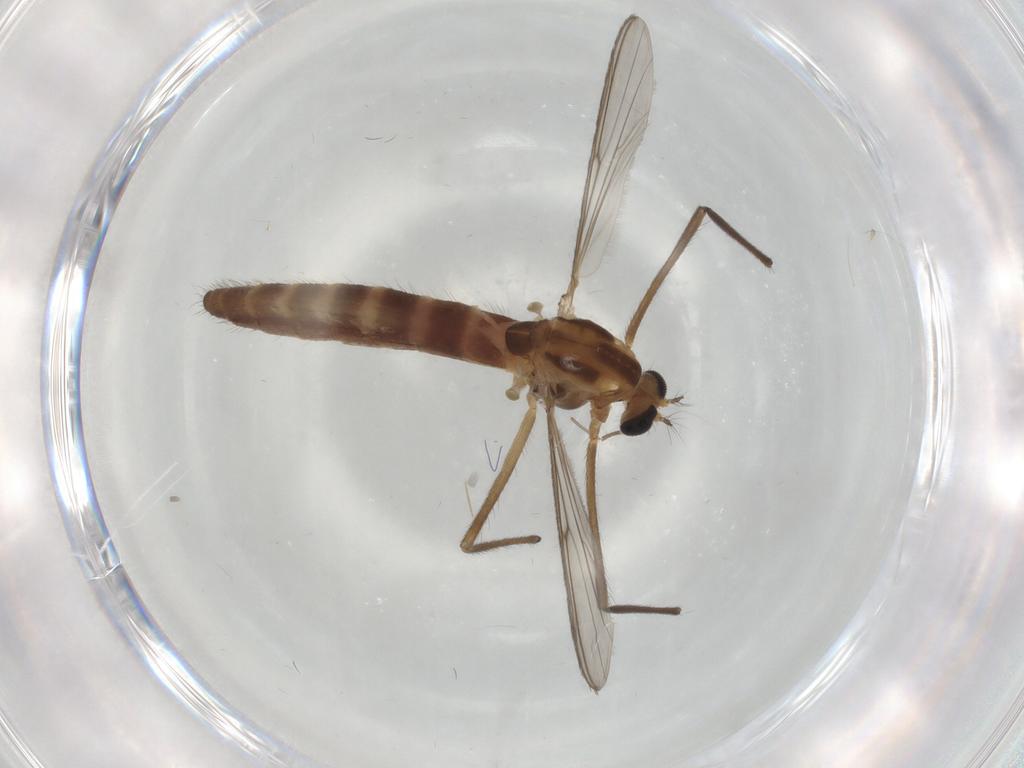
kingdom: Animalia
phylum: Arthropoda
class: Insecta
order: Diptera
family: Chironomidae
